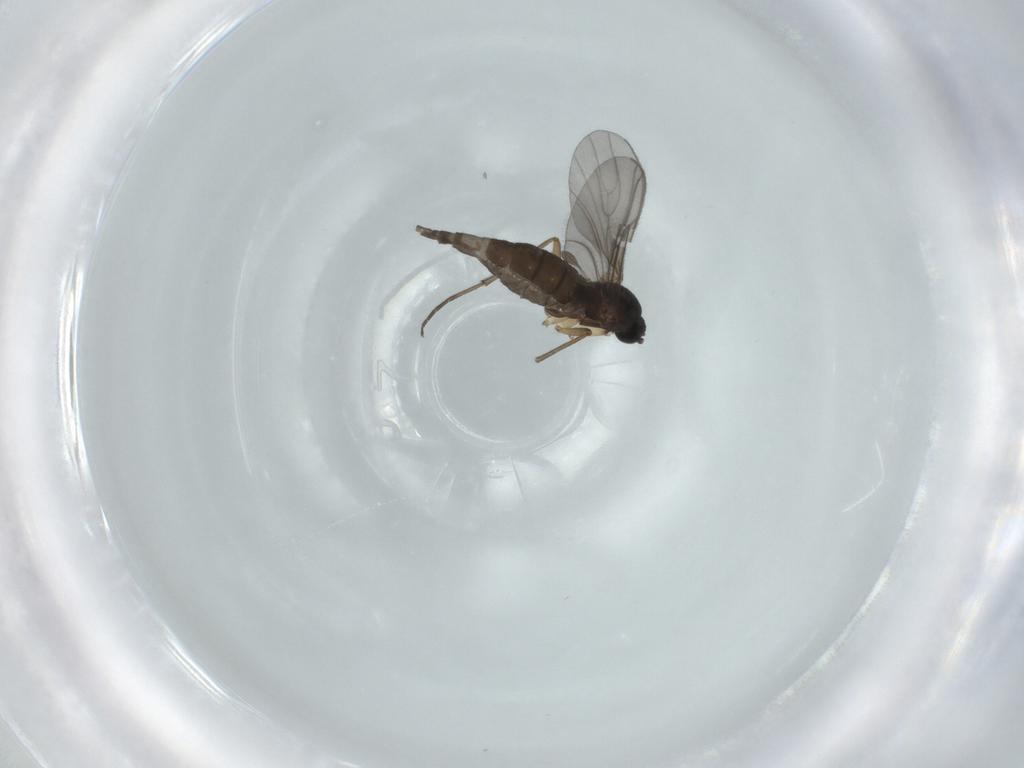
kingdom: Animalia
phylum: Arthropoda
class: Insecta
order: Diptera
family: Sciaridae
